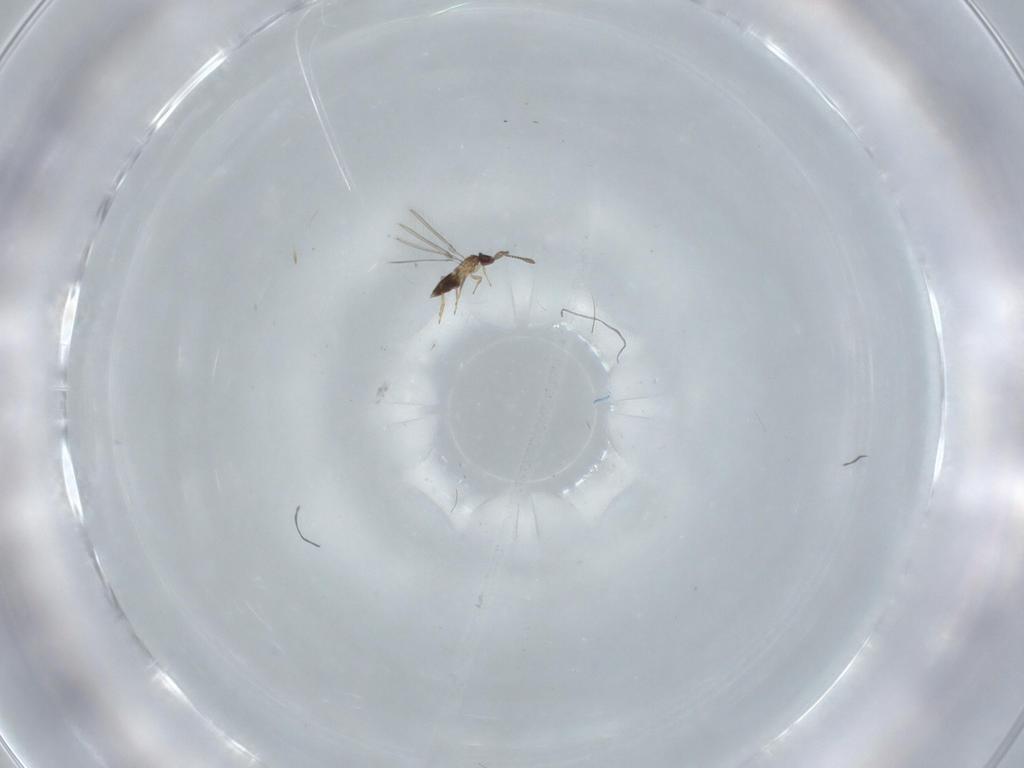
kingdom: Animalia
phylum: Arthropoda
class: Insecta
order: Hymenoptera
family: Mymaridae
